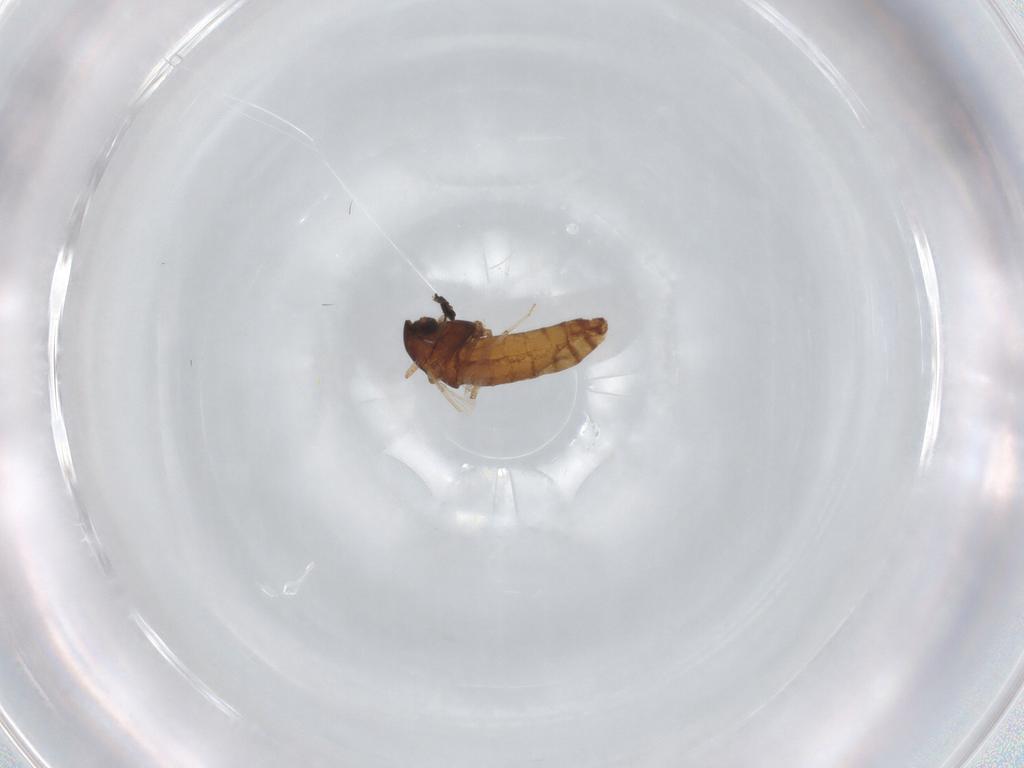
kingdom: Animalia
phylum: Arthropoda
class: Insecta
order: Diptera
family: Chironomidae
